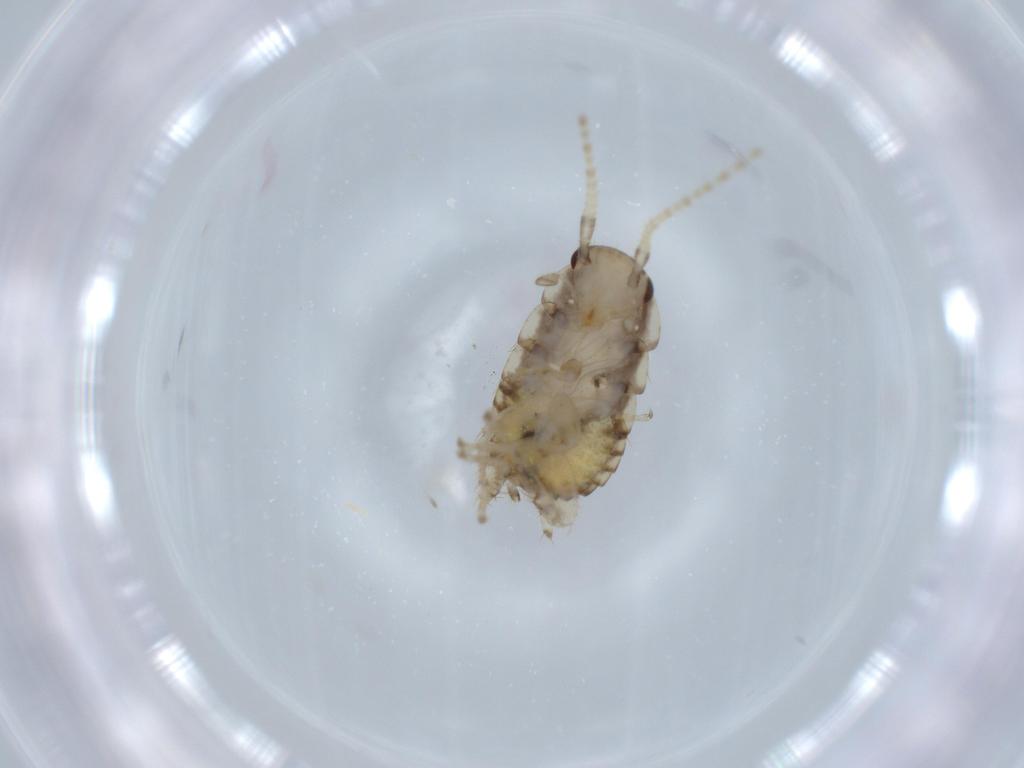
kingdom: Animalia
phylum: Arthropoda
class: Insecta
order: Blattodea
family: Ectobiidae
